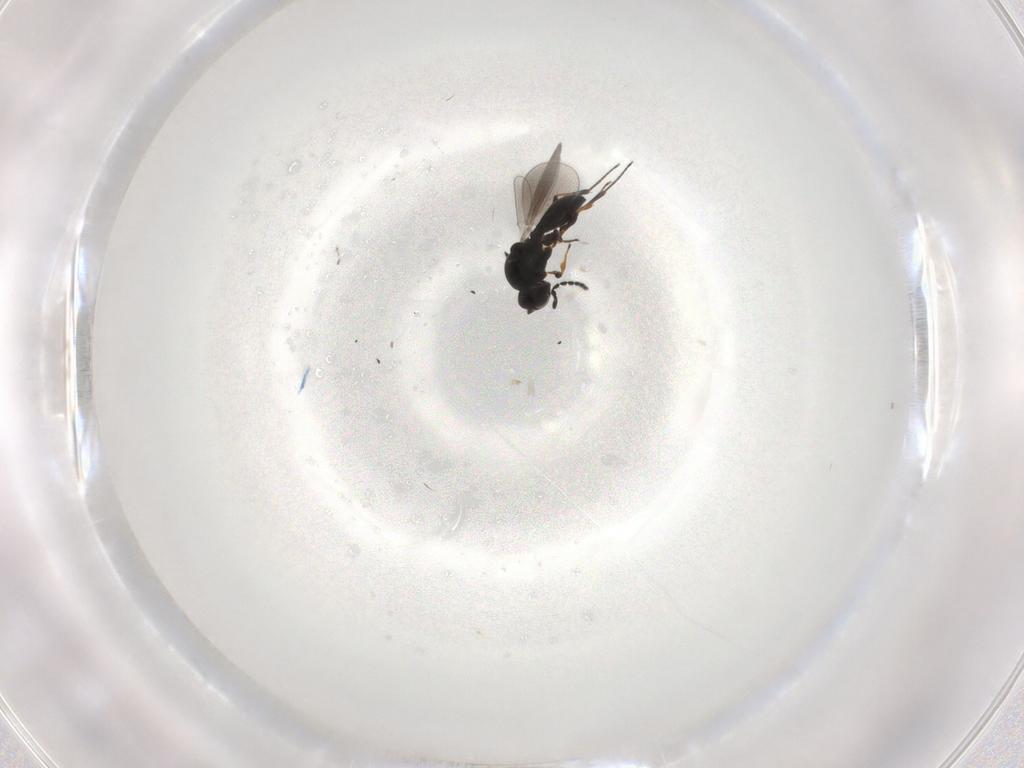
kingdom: Animalia
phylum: Arthropoda
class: Insecta
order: Hymenoptera
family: Platygastridae
